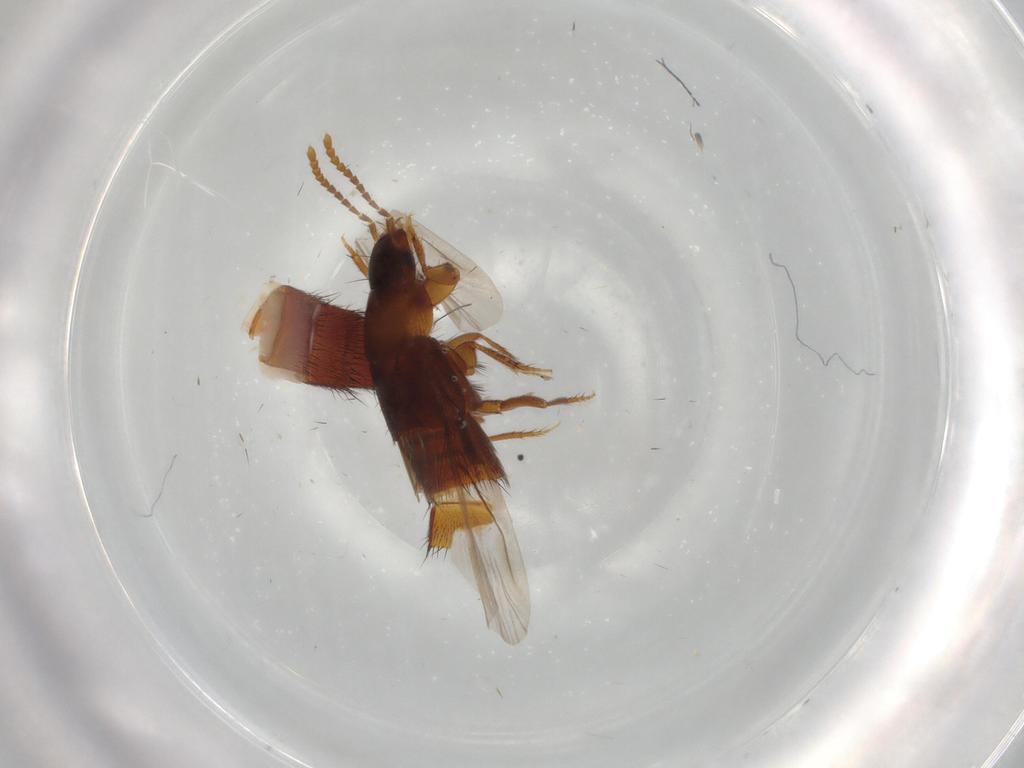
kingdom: Animalia
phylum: Arthropoda
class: Insecta
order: Coleoptera
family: Staphylinidae
